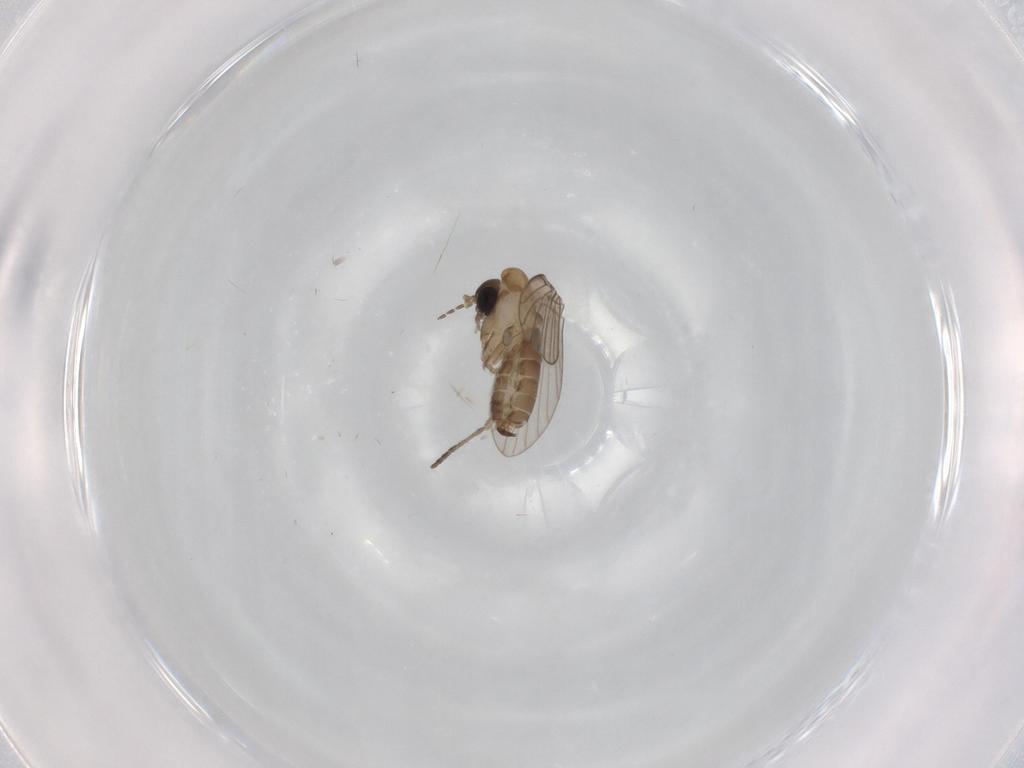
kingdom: Animalia
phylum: Arthropoda
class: Insecta
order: Diptera
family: Psychodidae
